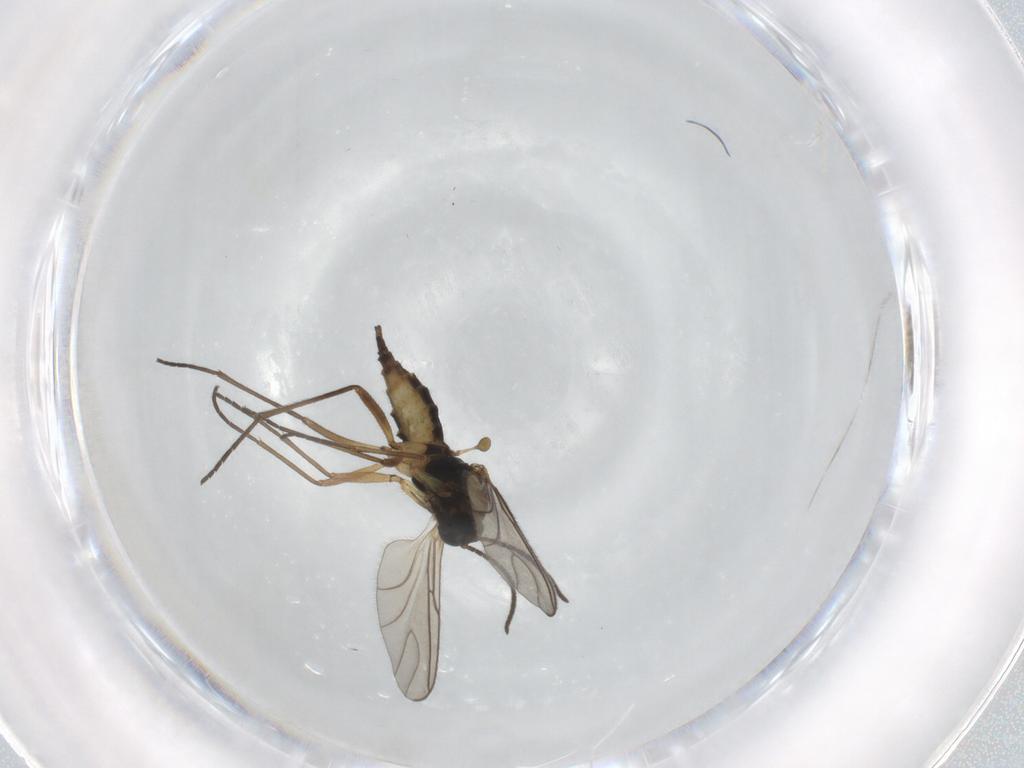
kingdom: Animalia
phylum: Arthropoda
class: Insecta
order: Diptera
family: Sciaridae
